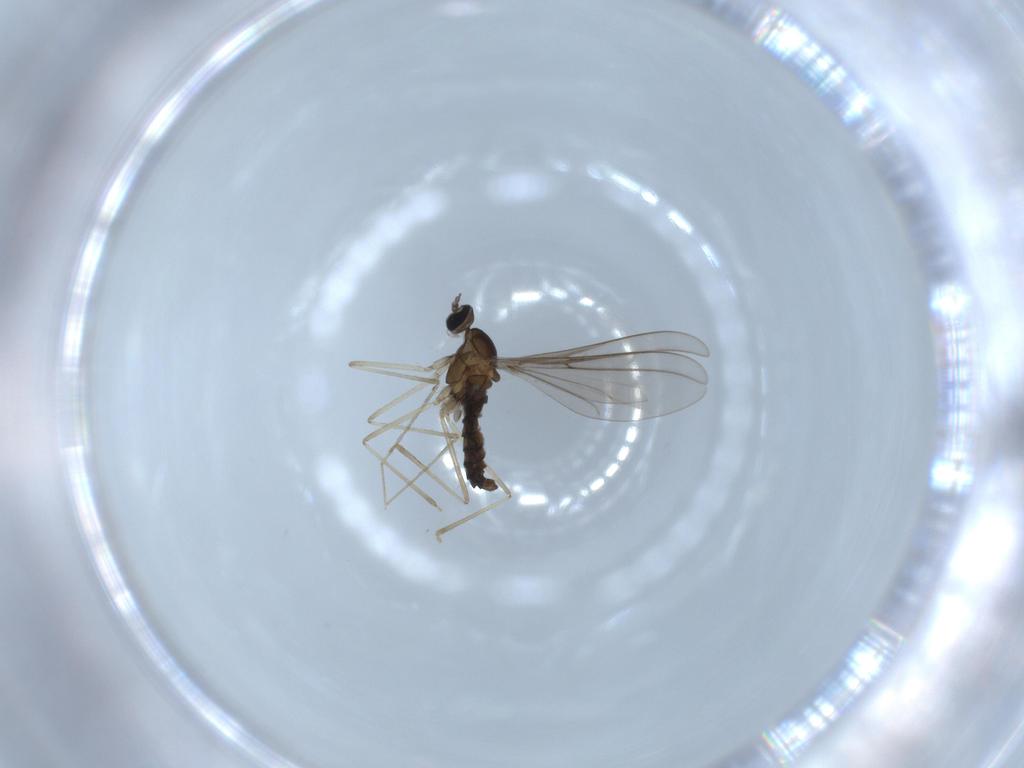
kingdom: Animalia
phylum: Arthropoda
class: Insecta
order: Diptera
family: Cecidomyiidae
